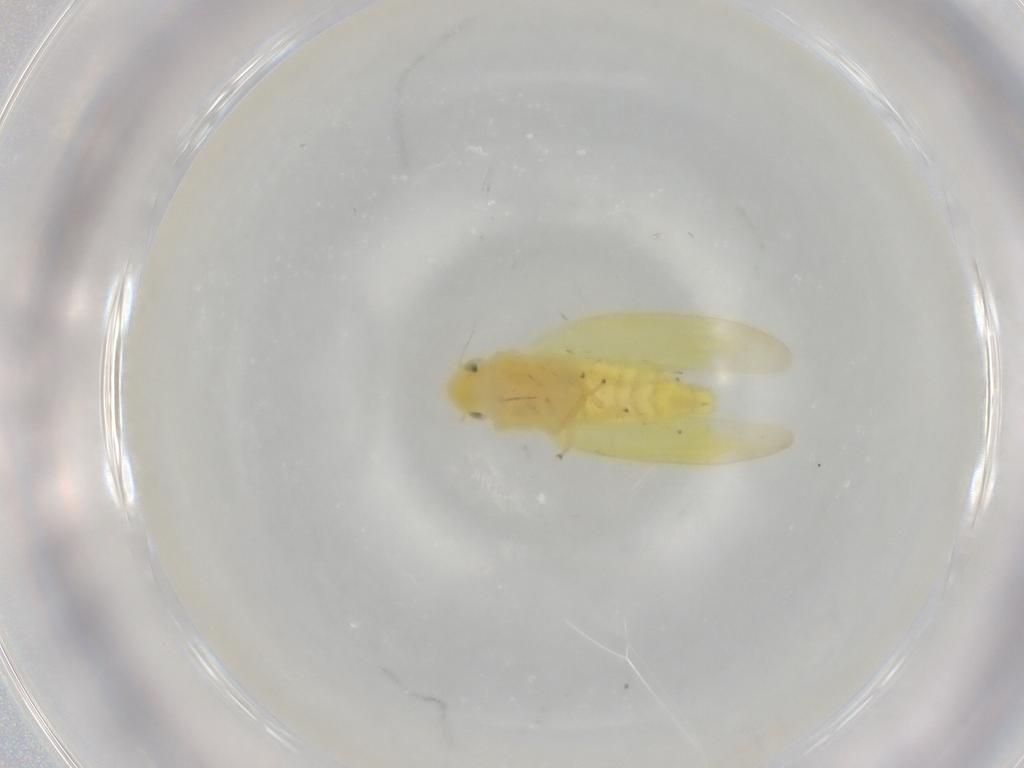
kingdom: Animalia
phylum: Arthropoda
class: Insecta
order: Hemiptera
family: Cicadellidae
